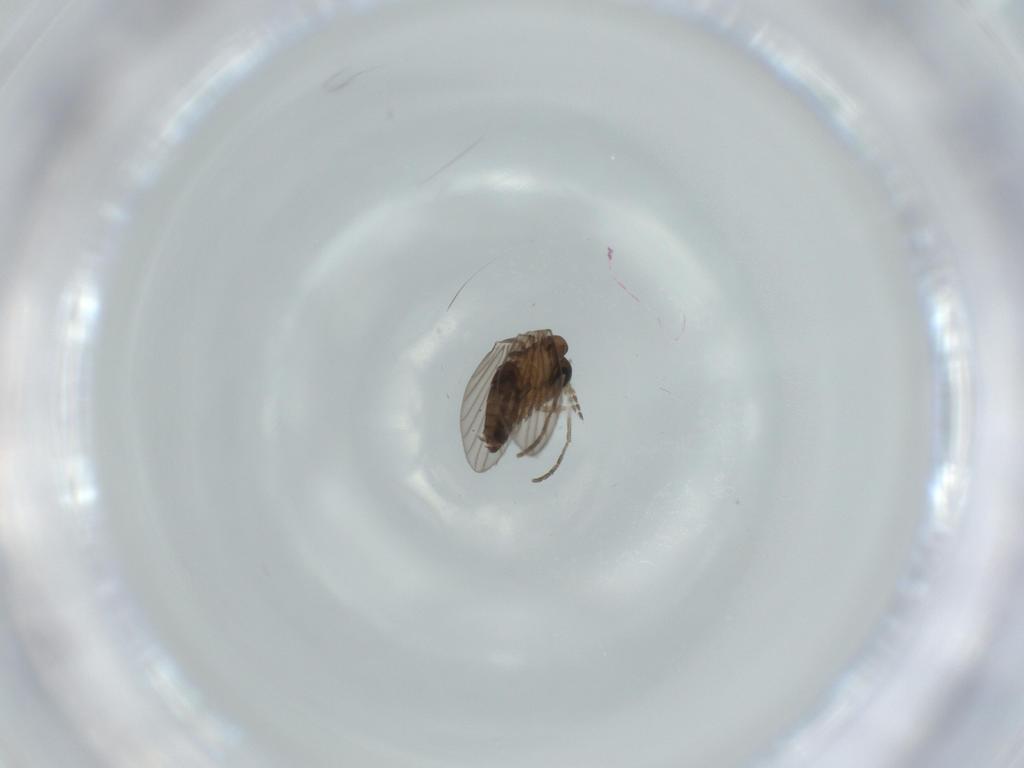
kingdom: Animalia
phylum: Arthropoda
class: Insecta
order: Diptera
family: Psychodidae
